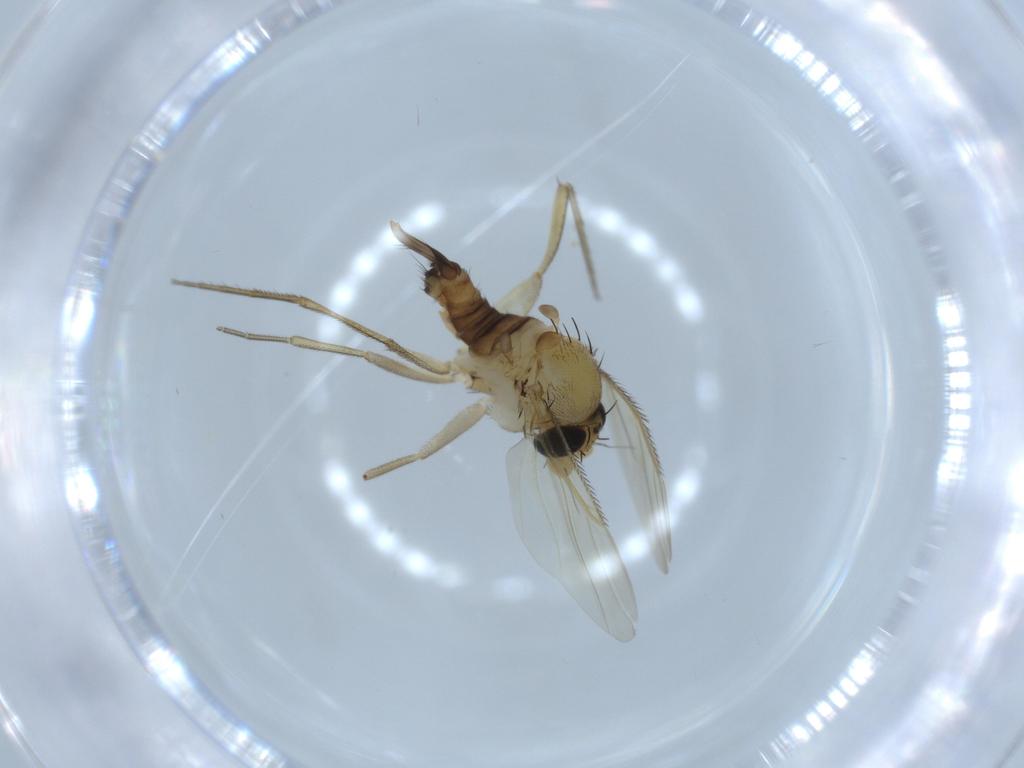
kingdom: Animalia
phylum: Arthropoda
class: Insecta
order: Diptera
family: Phoridae
